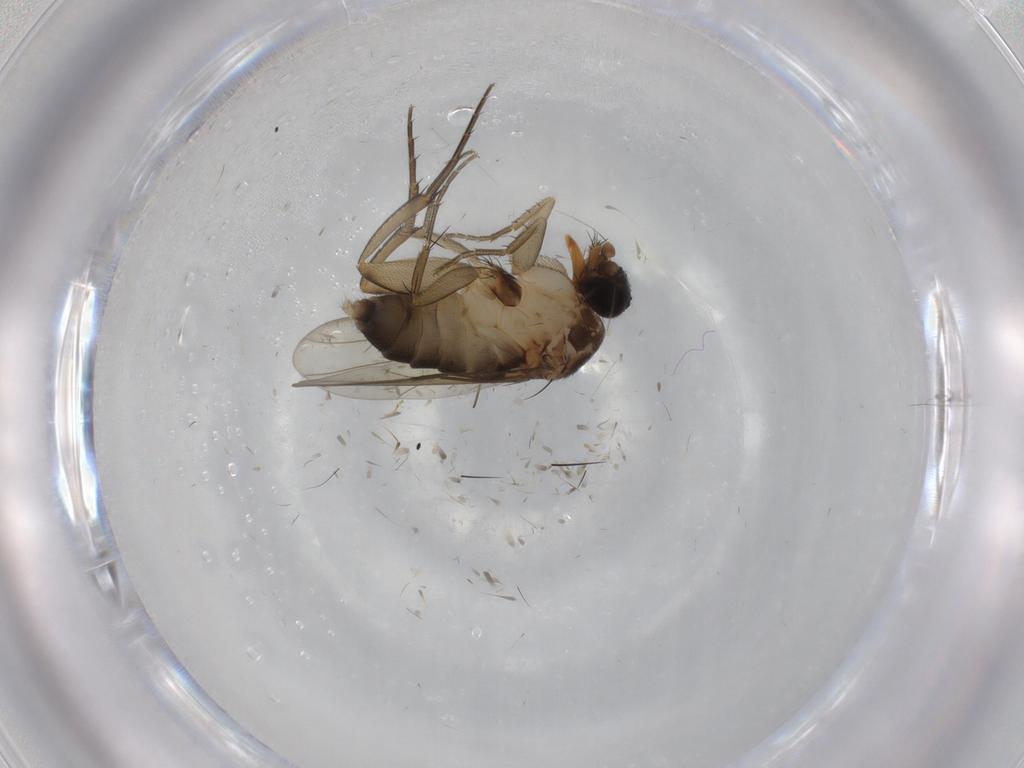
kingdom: Animalia
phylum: Arthropoda
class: Insecta
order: Diptera
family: Phoridae
